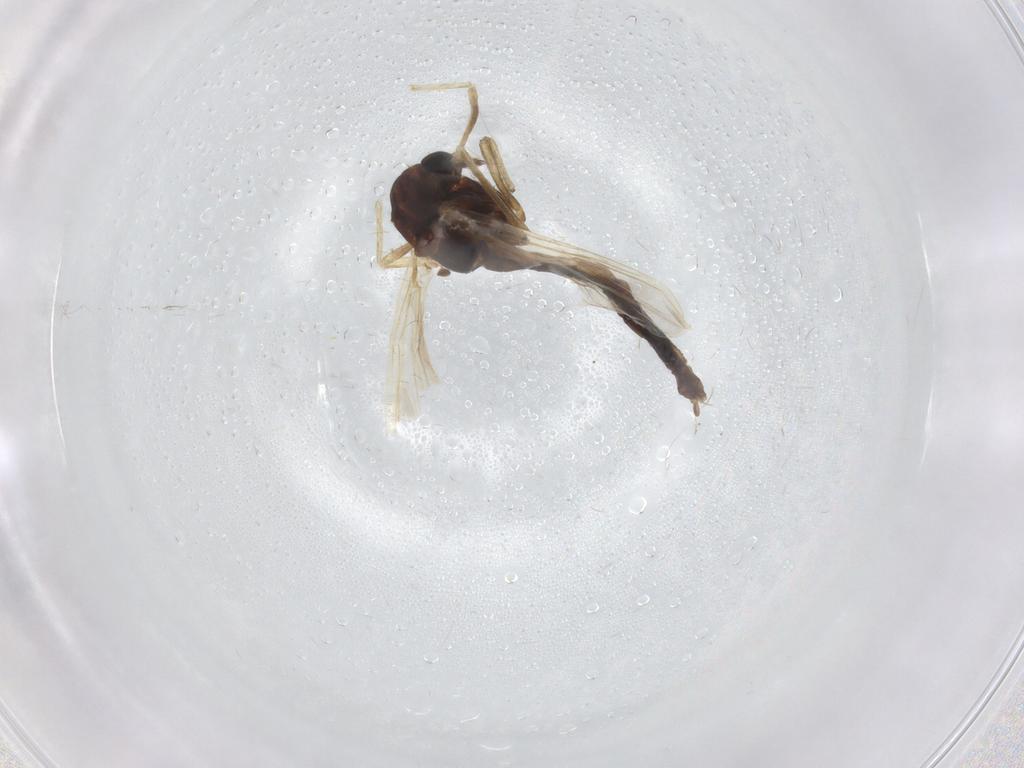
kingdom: Animalia
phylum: Arthropoda
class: Insecta
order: Diptera
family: Chironomidae
